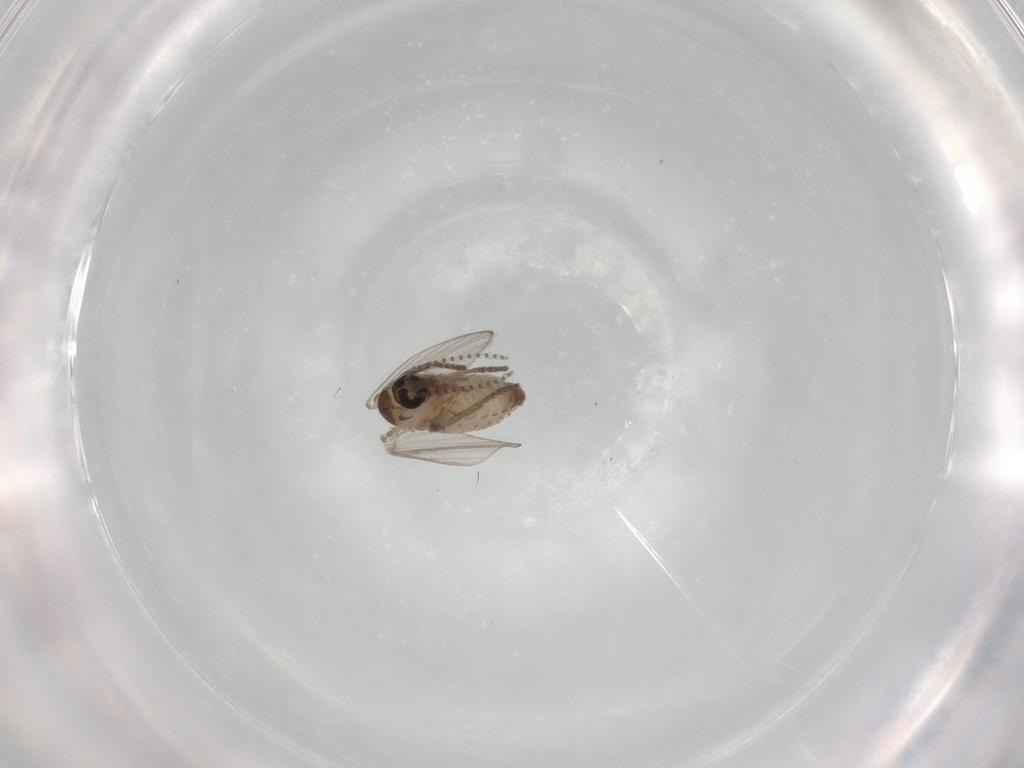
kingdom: Animalia
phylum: Arthropoda
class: Insecta
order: Diptera
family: Psychodidae
